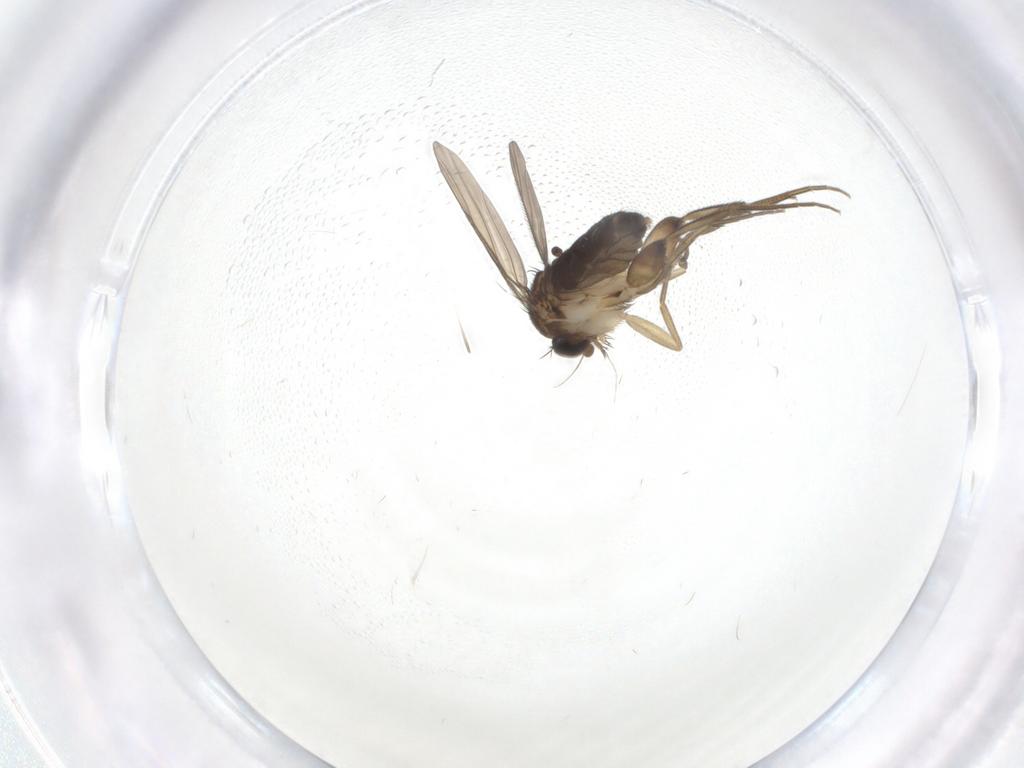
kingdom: Animalia
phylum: Arthropoda
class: Insecta
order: Diptera
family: Phoridae
